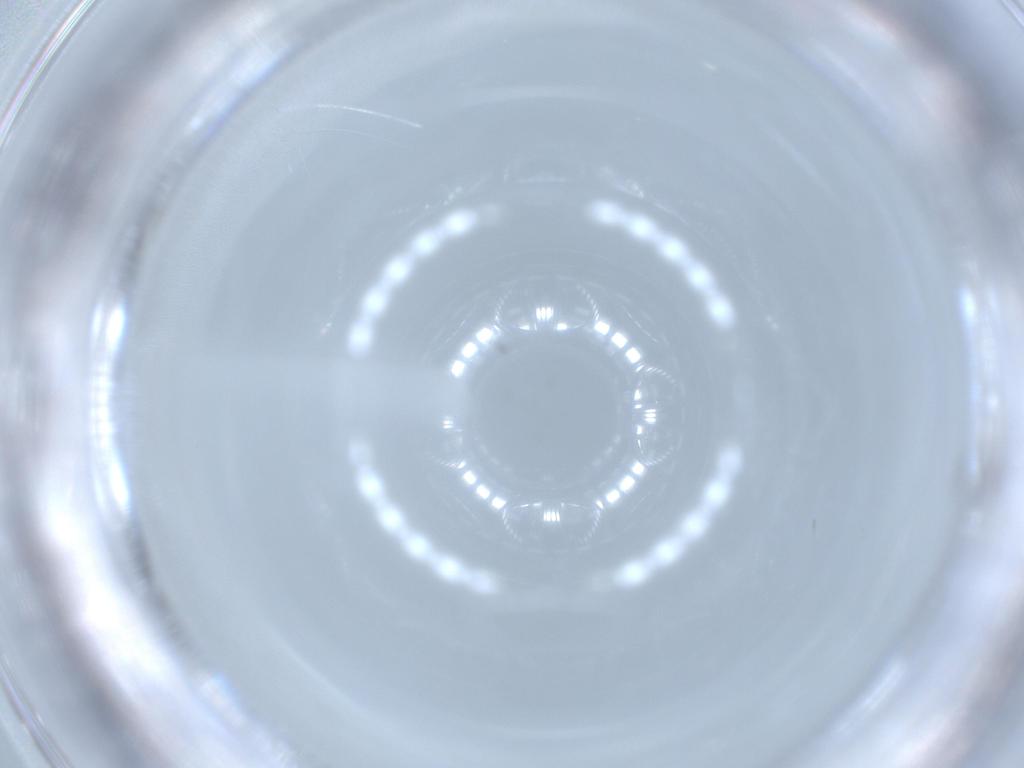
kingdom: Animalia
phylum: Arthropoda
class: Insecta
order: Diptera
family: Sciaridae
